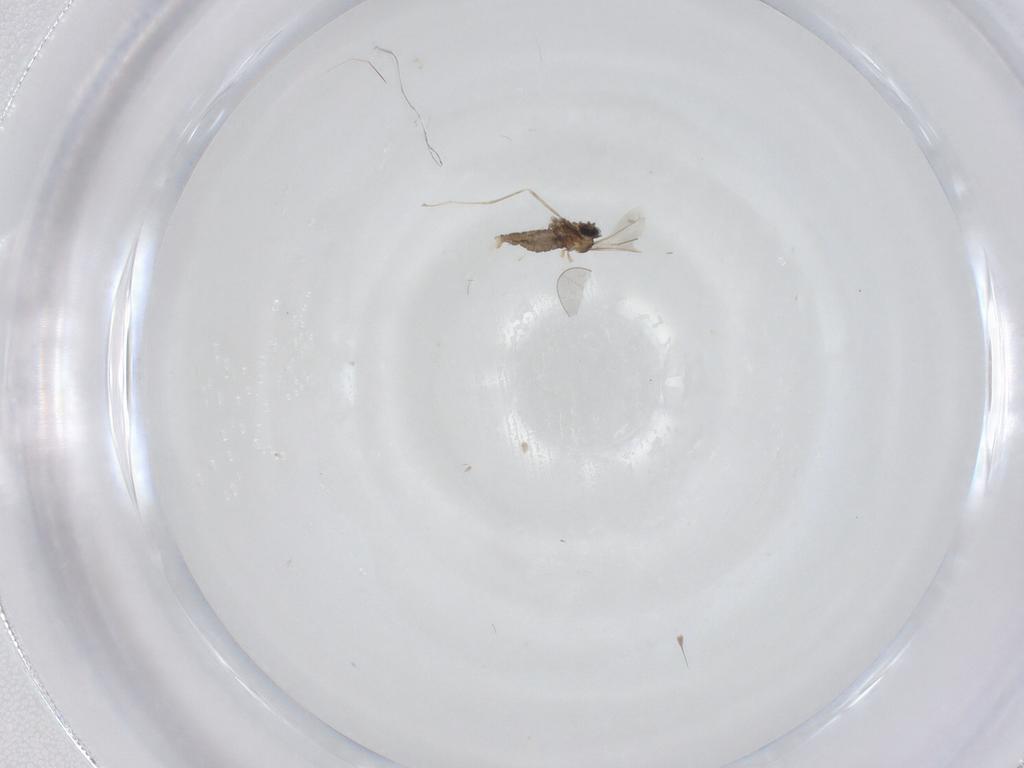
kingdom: Animalia
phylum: Arthropoda
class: Insecta
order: Diptera
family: Cecidomyiidae
